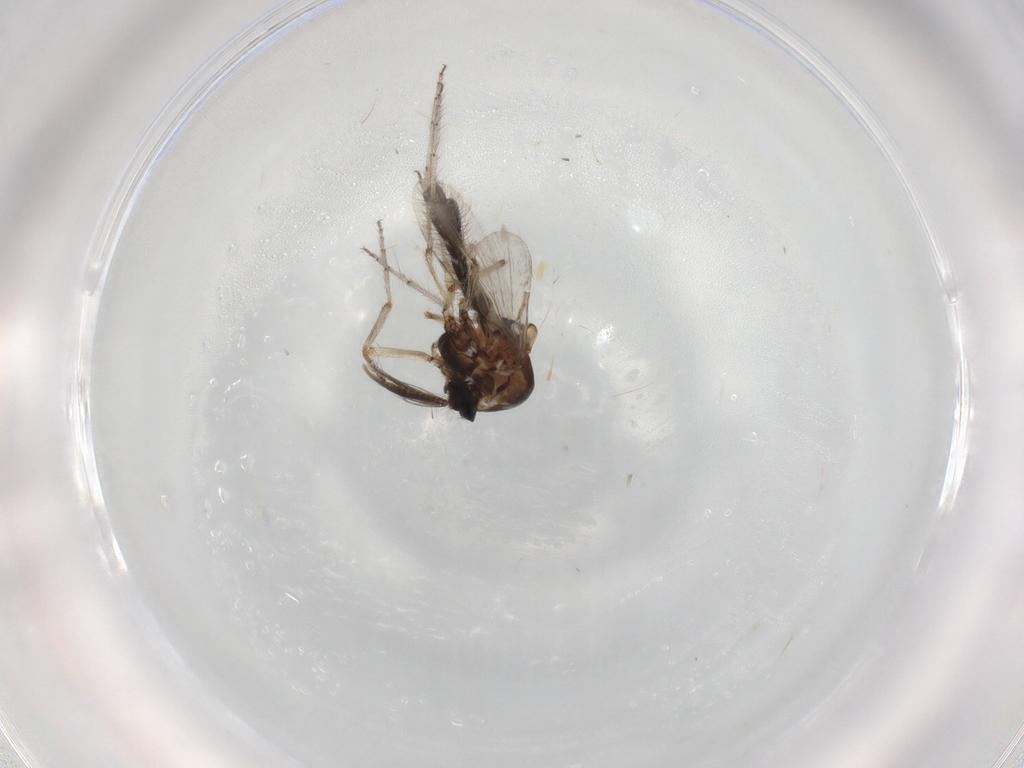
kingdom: Animalia
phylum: Arthropoda
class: Insecta
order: Diptera
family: Ceratopogonidae
